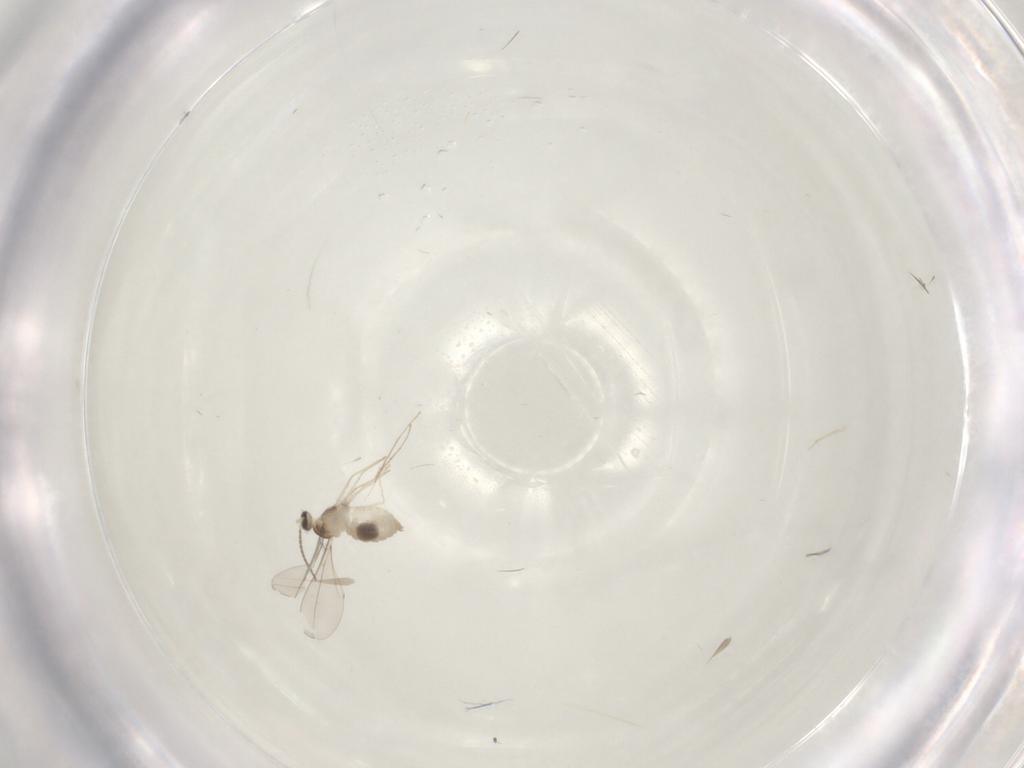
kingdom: Animalia
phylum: Arthropoda
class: Insecta
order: Diptera
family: Cecidomyiidae
